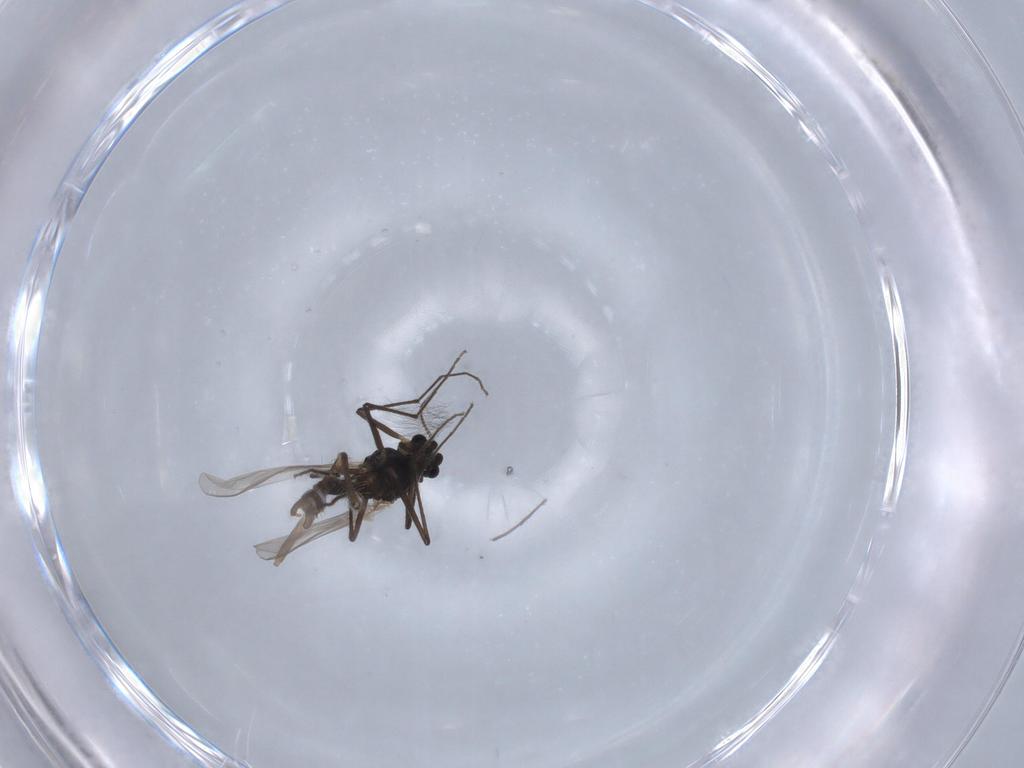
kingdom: Animalia
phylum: Arthropoda
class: Insecta
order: Diptera
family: Chironomidae
